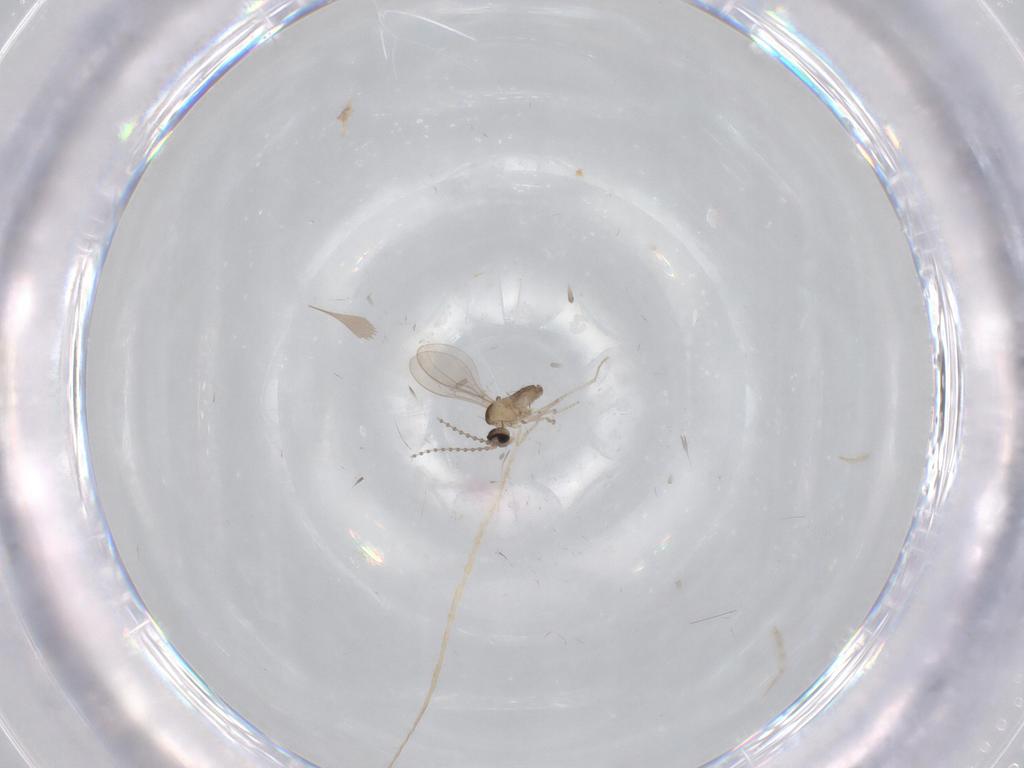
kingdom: Animalia
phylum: Arthropoda
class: Insecta
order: Diptera
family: Cecidomyiidae
